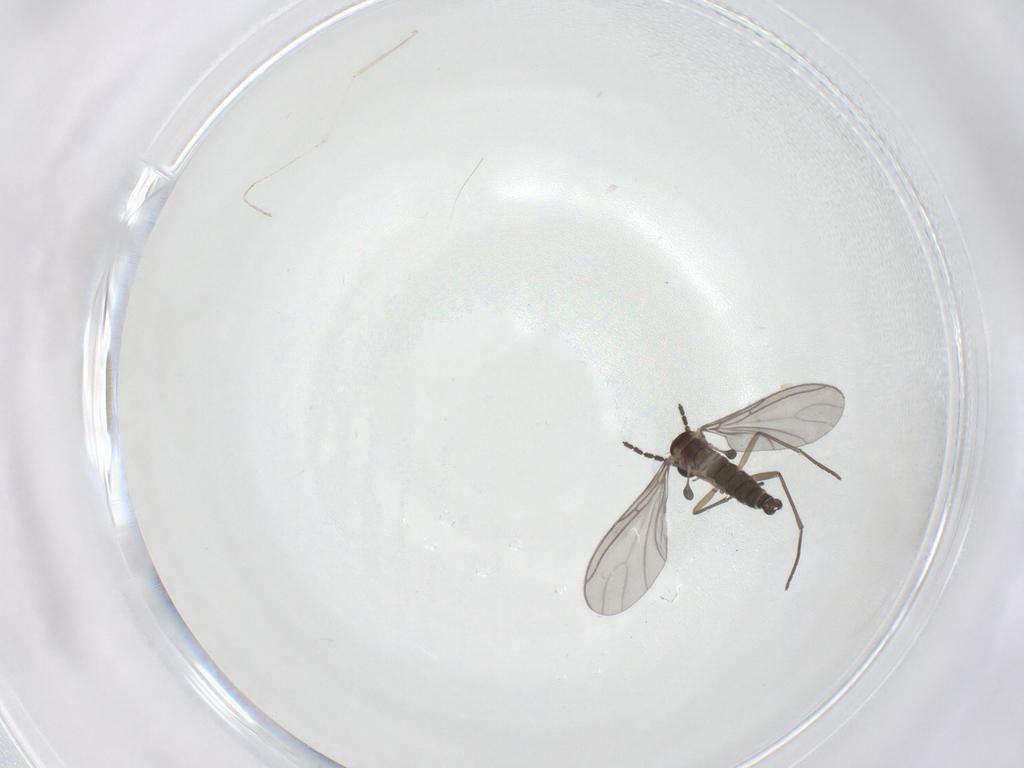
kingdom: Animalia
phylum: Arthropoda
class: Insecta
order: Diptera
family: Sciaridae
